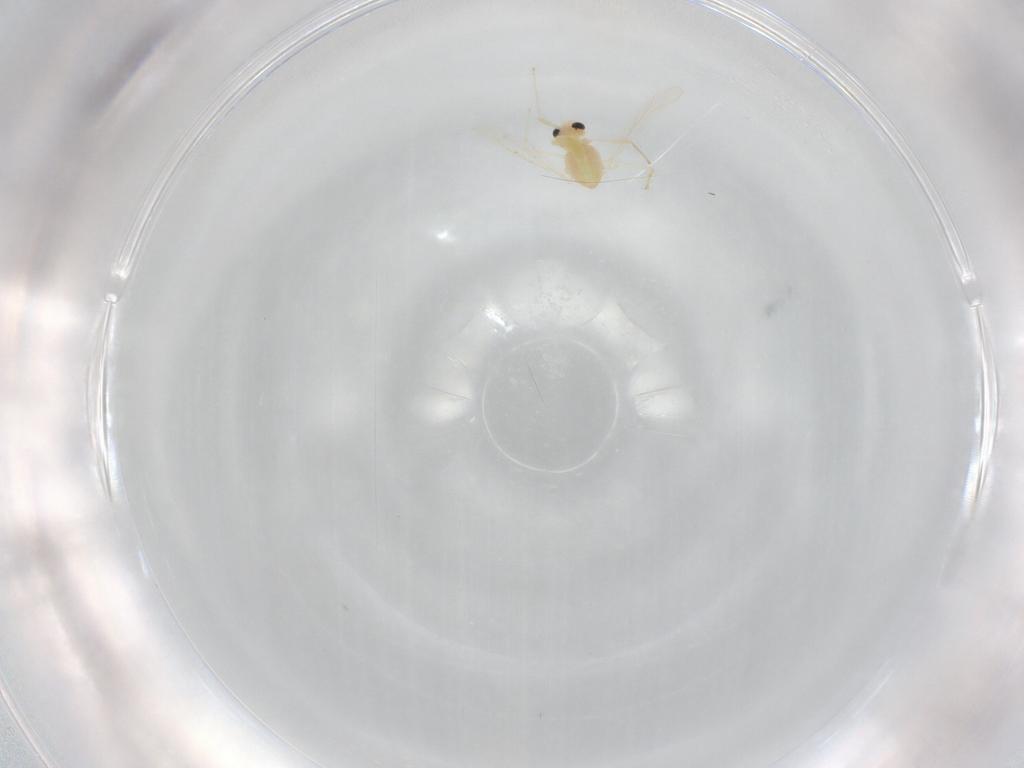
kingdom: Animalia
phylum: Arthropoda
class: Insecta
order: Diptera
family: Chironomidae
